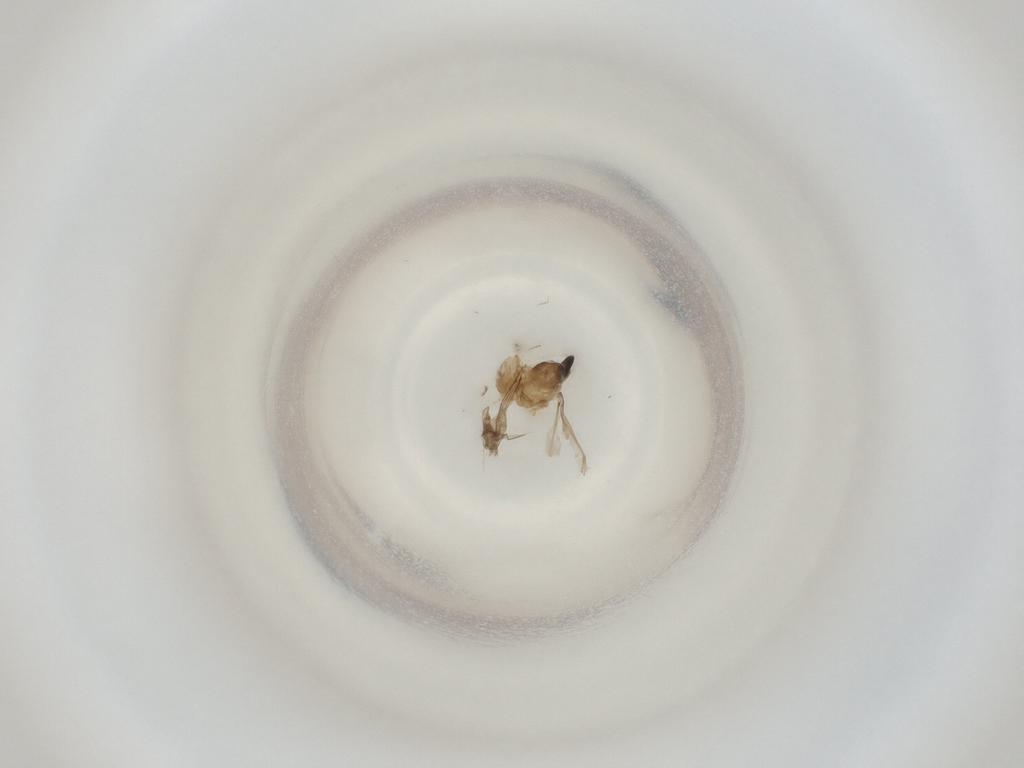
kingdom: Animalia
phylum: Arthropoda
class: Insecta
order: Diptera
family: Cecidomyiidae
